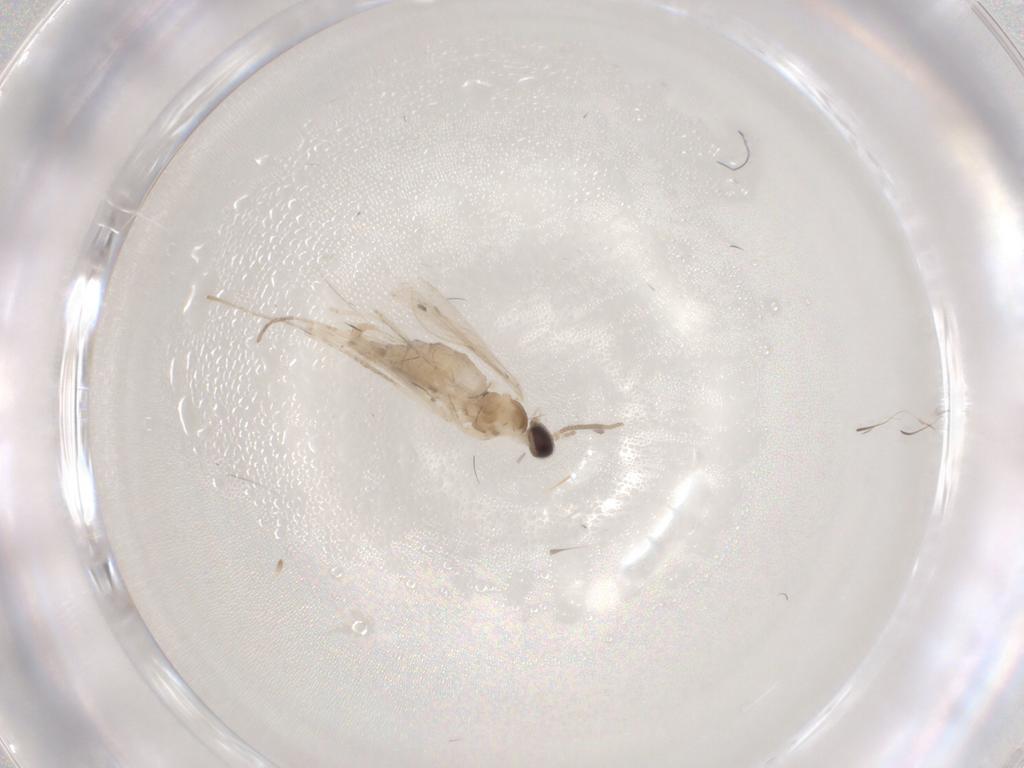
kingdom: Animalia
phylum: Arthropoda
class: Insecta
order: Diptera
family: Cecidomyiidae
